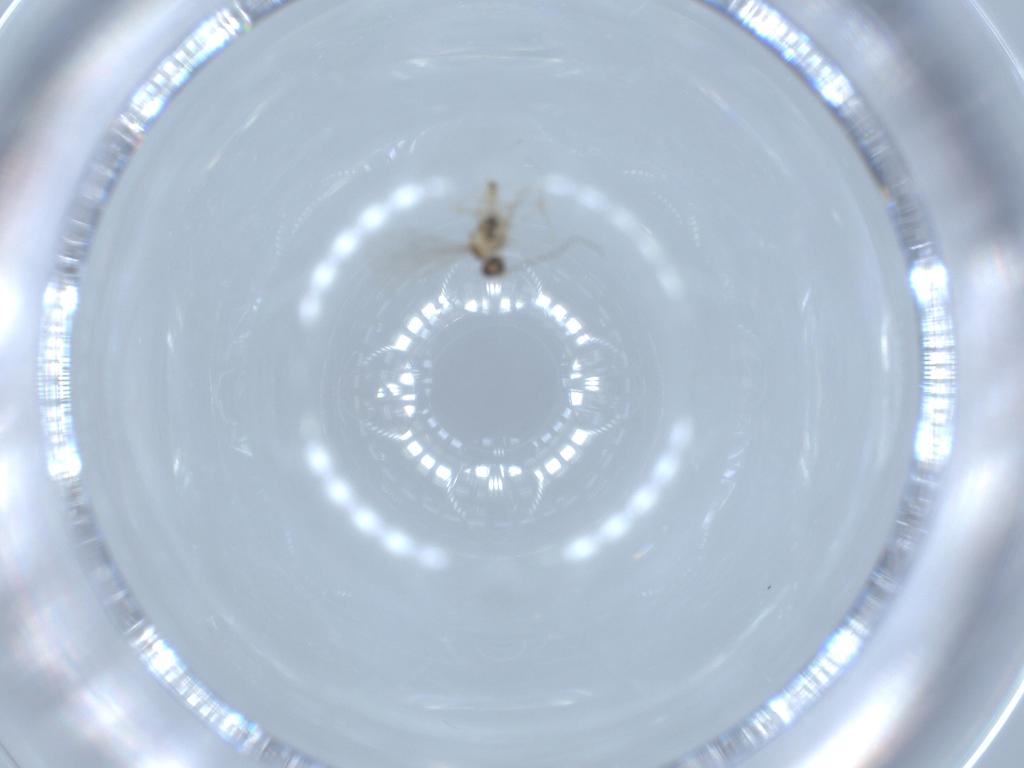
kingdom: Animalia
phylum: Arthropoda
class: Insecta
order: Diptera
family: Cecidomyiidae
